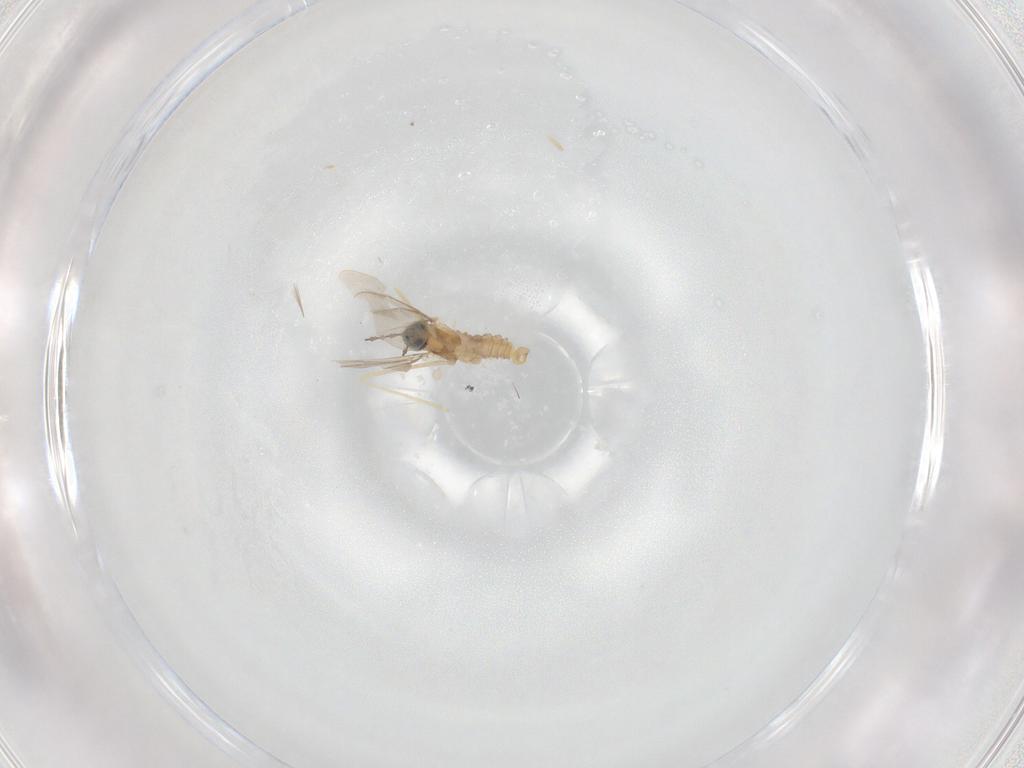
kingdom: Animalia
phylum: Arthropoda
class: Insecta
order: Diptera
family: Cecidomyiidae
